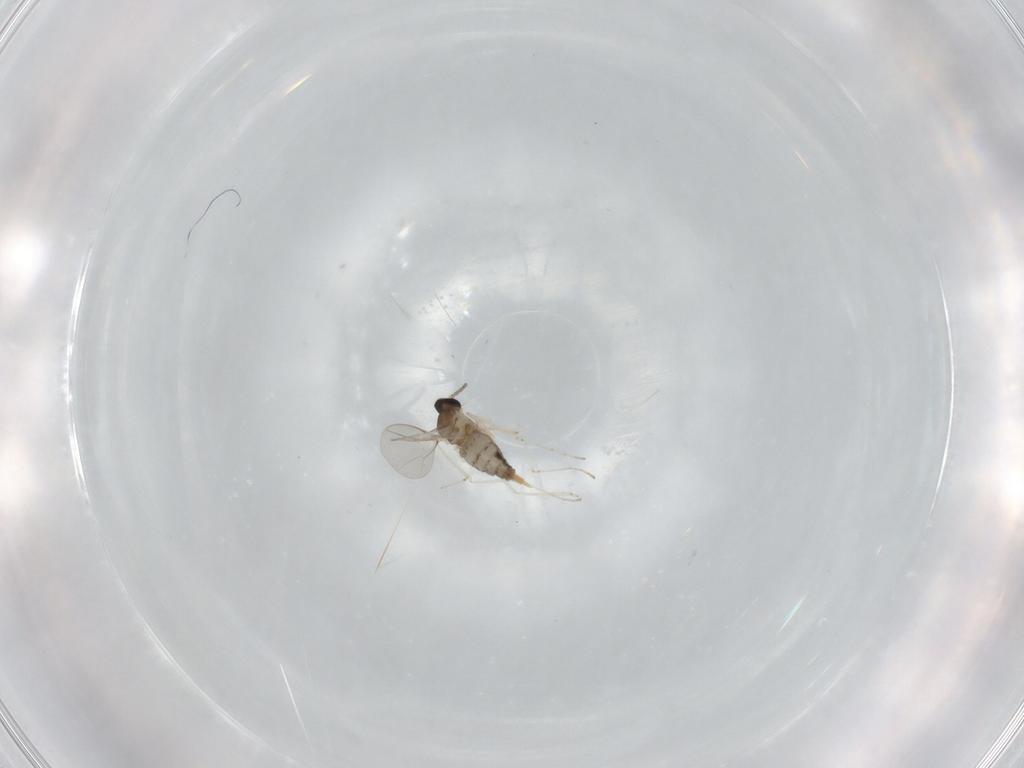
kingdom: Animalia
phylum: Arthropoda
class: Insecta
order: Diptera
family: Cecidomyiidae
